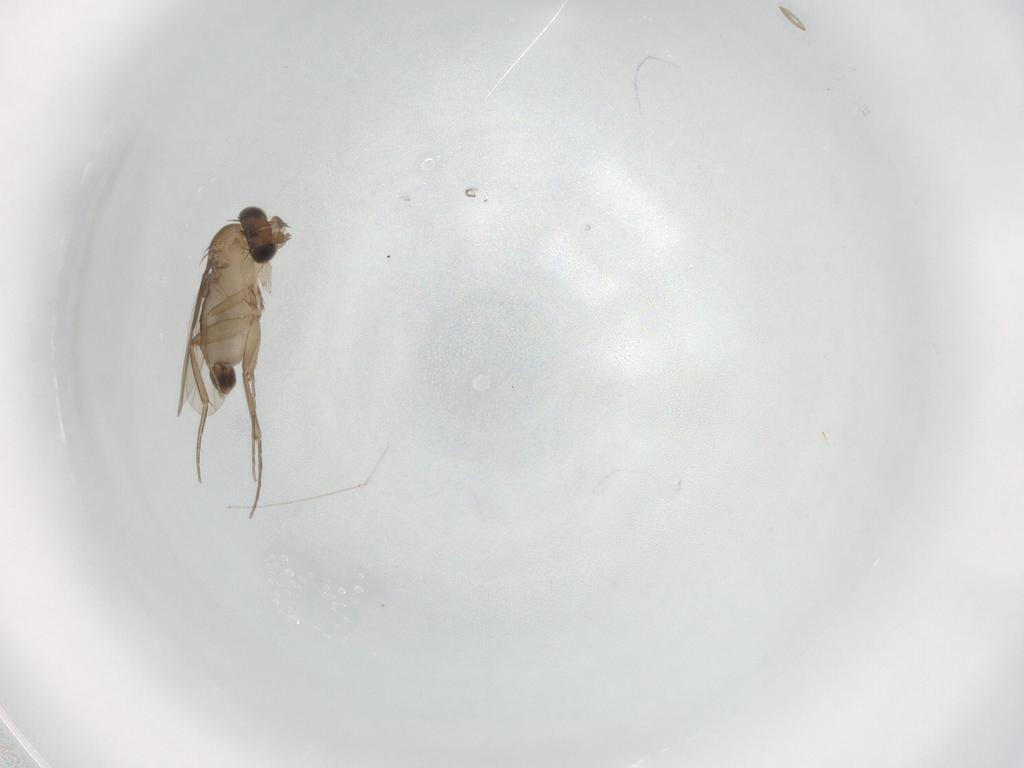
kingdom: Animalia
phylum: Arthropoda
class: Insecta
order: Diptera
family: Phoridae
